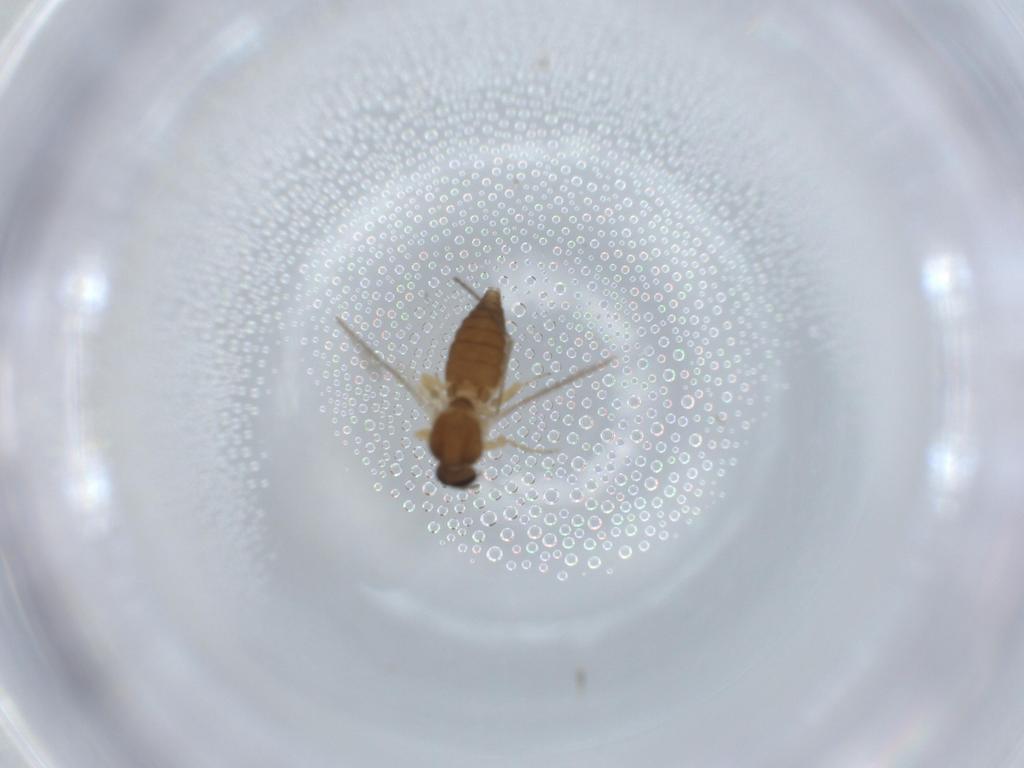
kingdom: Animalia
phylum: Arthropoda
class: Insecta
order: Diptera
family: Ceratopogonidae
